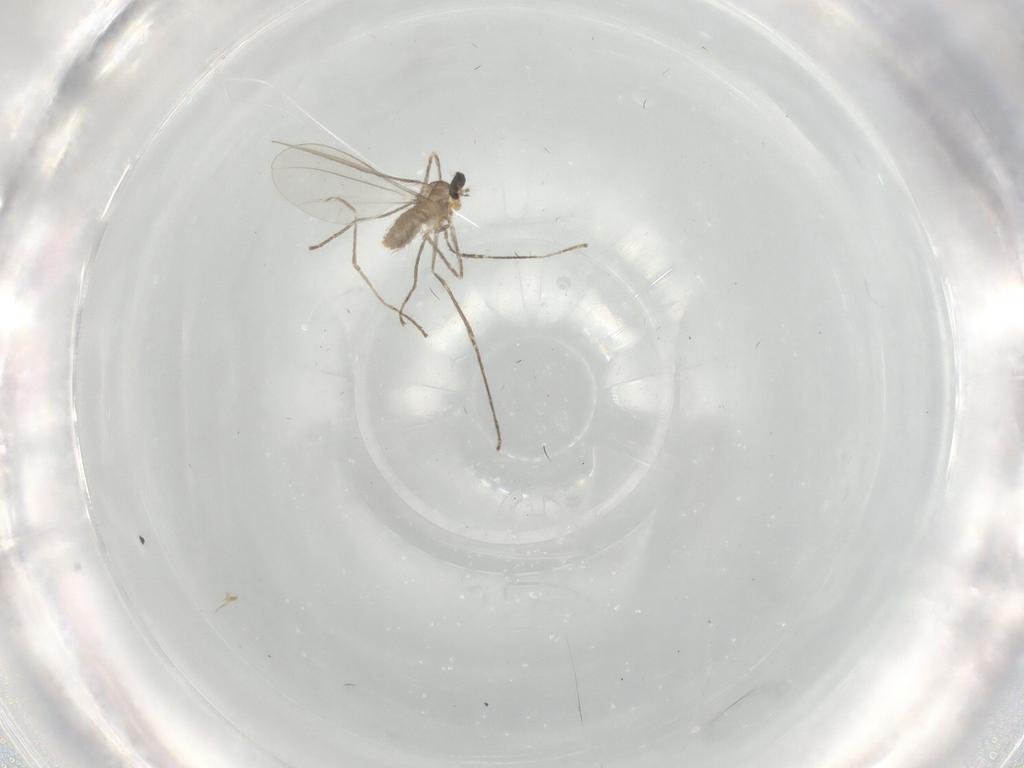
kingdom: Animalia
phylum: Arthropoda
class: Insecta
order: Diptera
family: Cecidomyiidae
